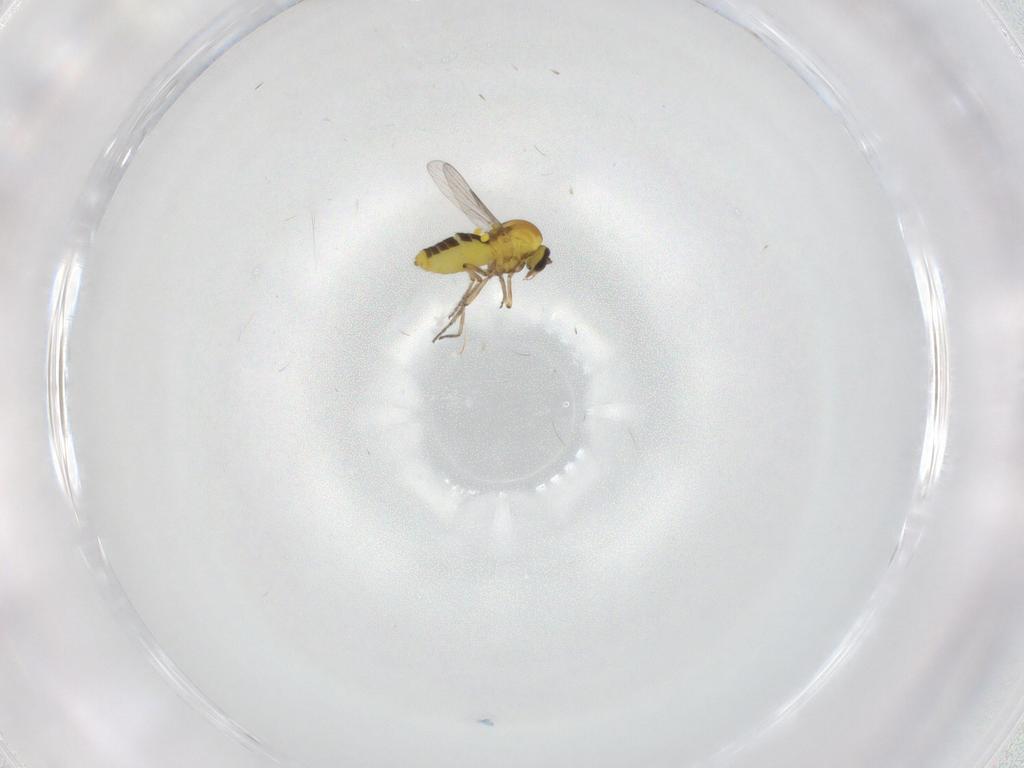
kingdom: Animalia
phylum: Arthropoda
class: Insecta
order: Diptera
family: Ceratopogonidae
